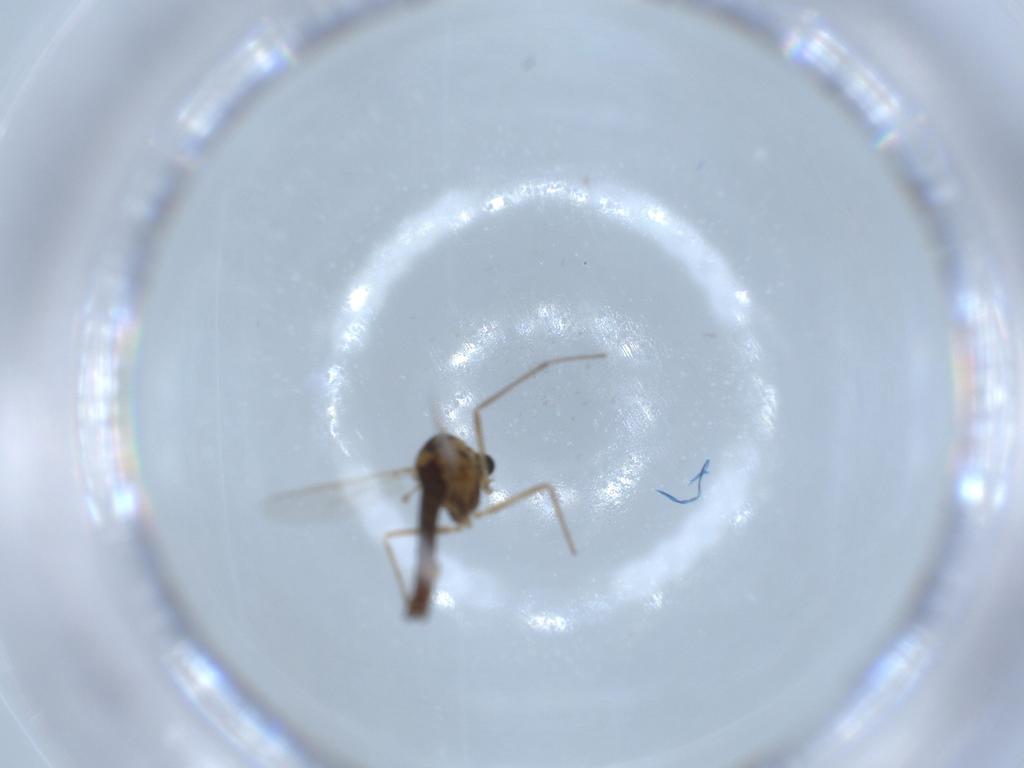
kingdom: Animalia
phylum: Arthropoda
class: Insecta
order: Diptera
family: Chironomidae
